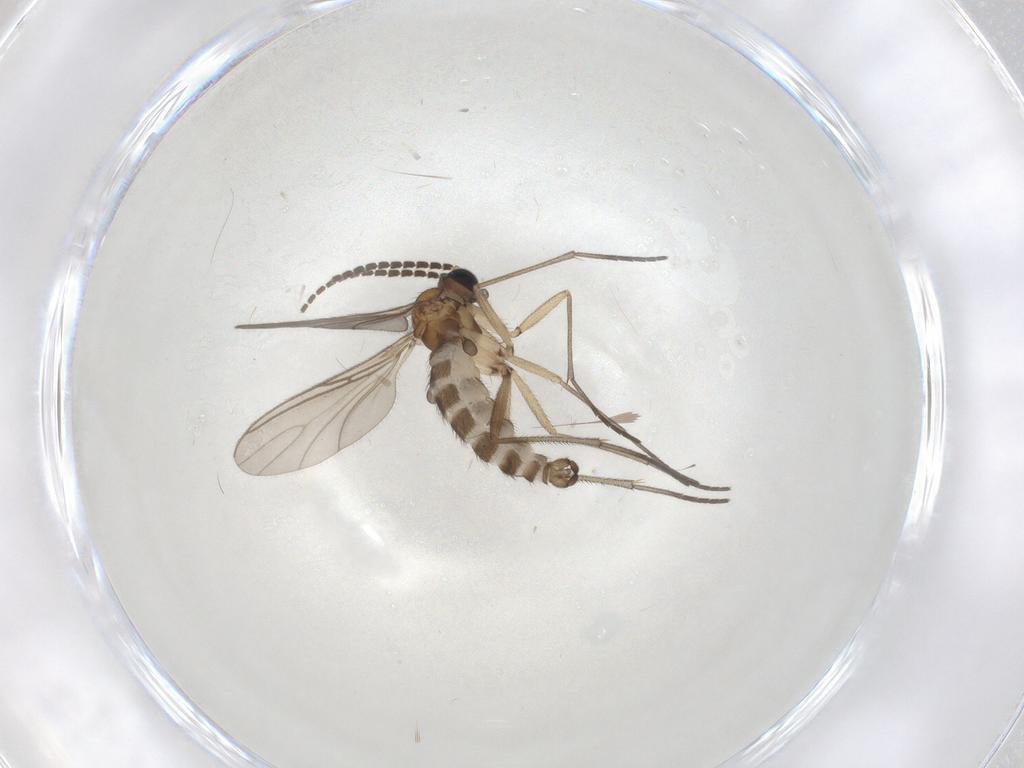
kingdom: Animalia
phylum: Arthropoda
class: Insecta
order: Diptera
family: Sciaridae
